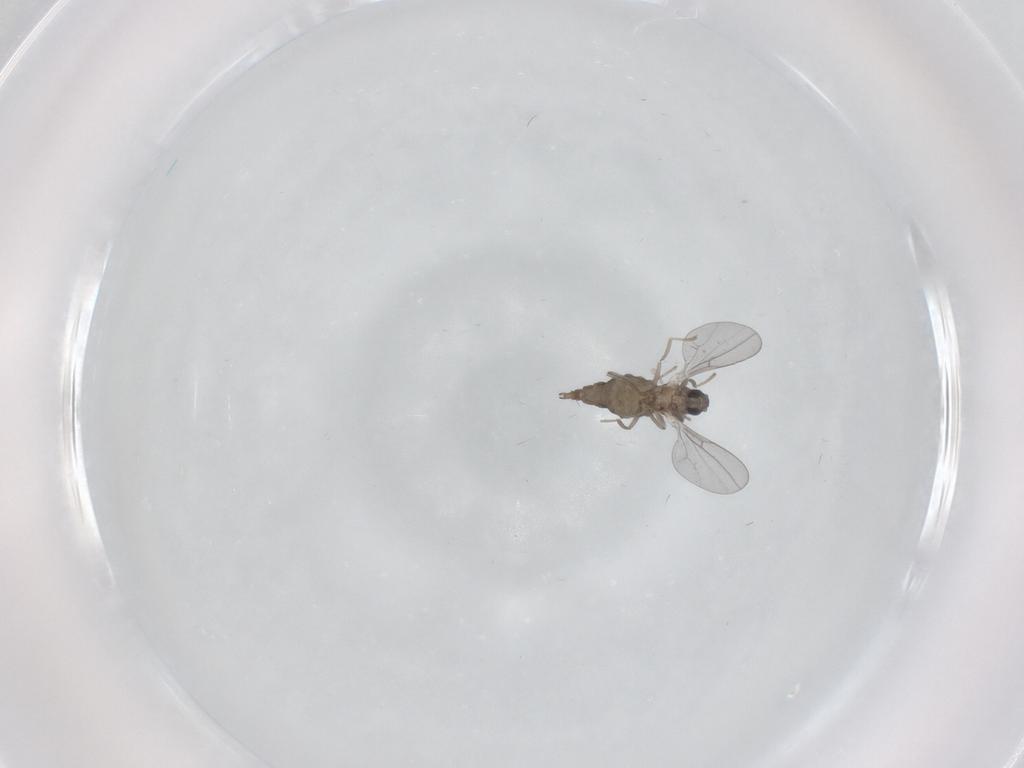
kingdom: Animalia
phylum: Arthropoda
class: Insecta
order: Diptera
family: Cecidomyiidae
